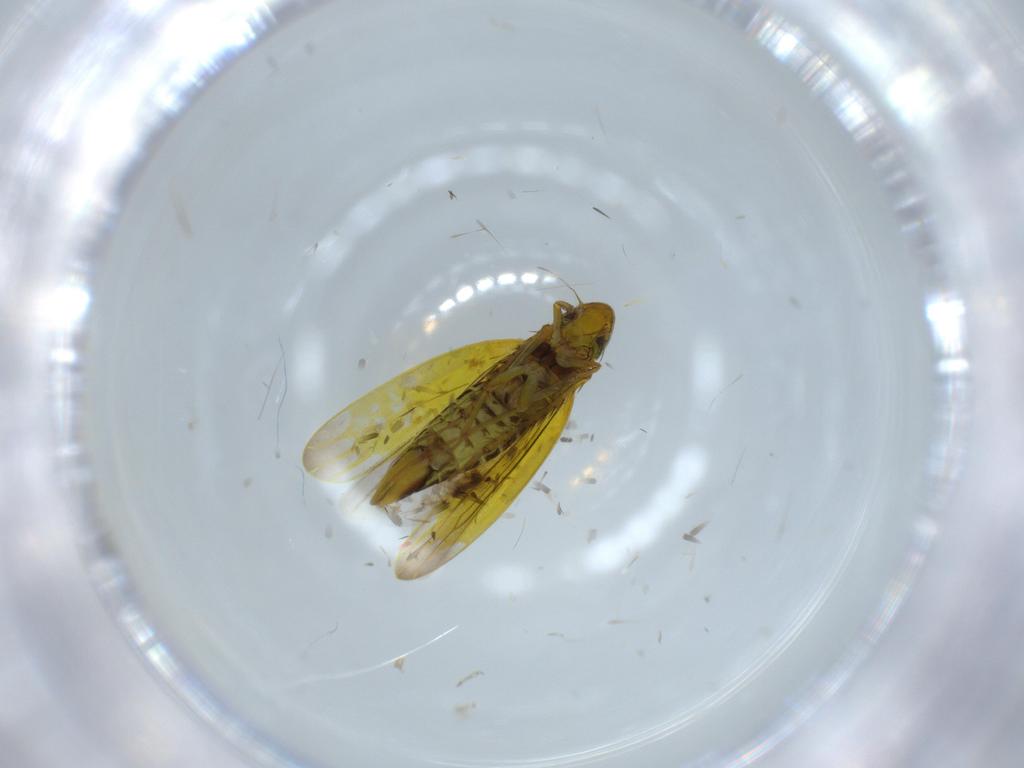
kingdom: Animalia
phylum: Arthropoda
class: Insecta
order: Hemiptera
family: Cicadellidae
